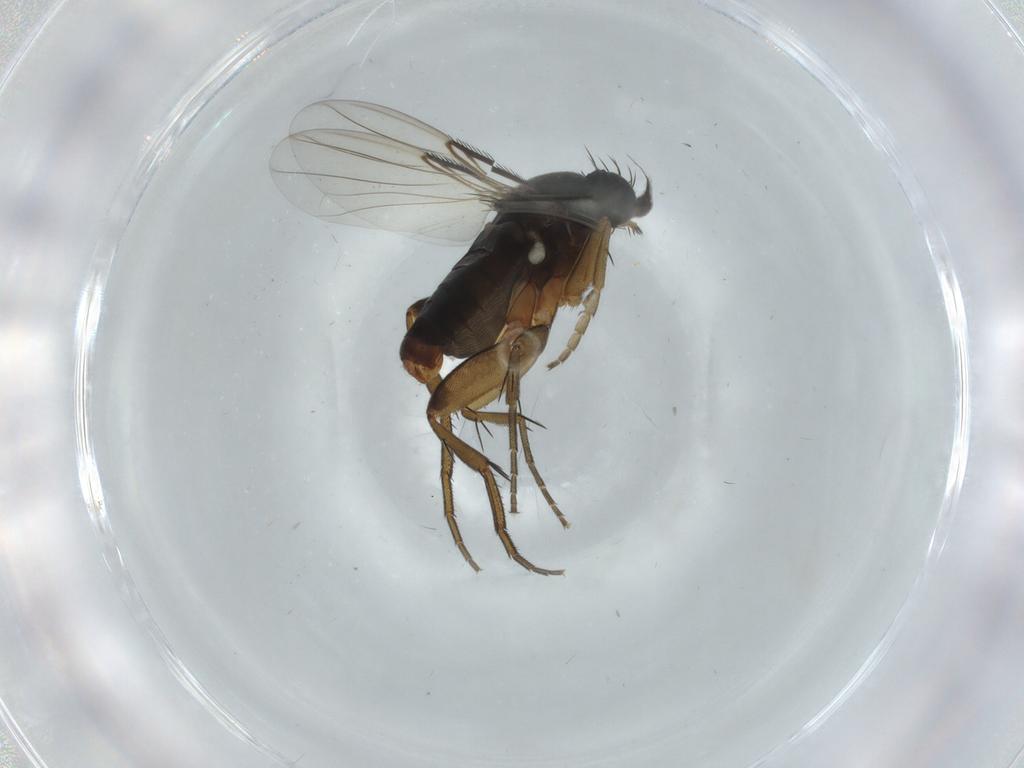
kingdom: Animalia
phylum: Arthropoda
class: Insecta
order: Diptera
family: Phoridae
